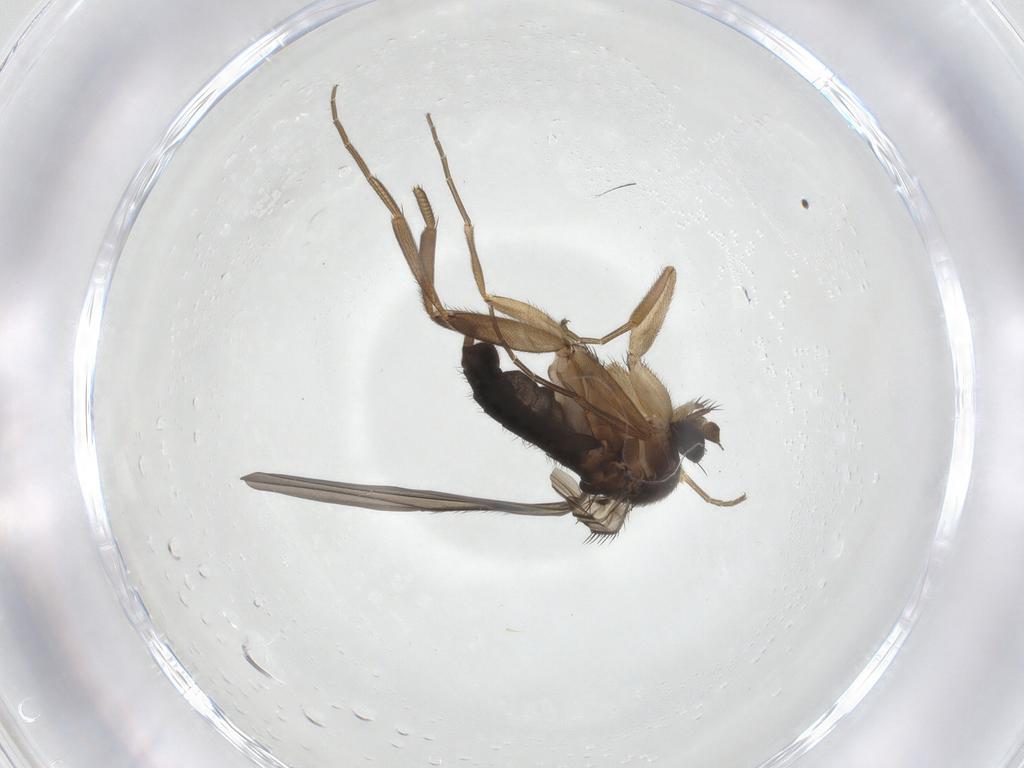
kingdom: Animalia
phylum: Arthropoda
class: Insecta
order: Diptera
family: Phoridae
